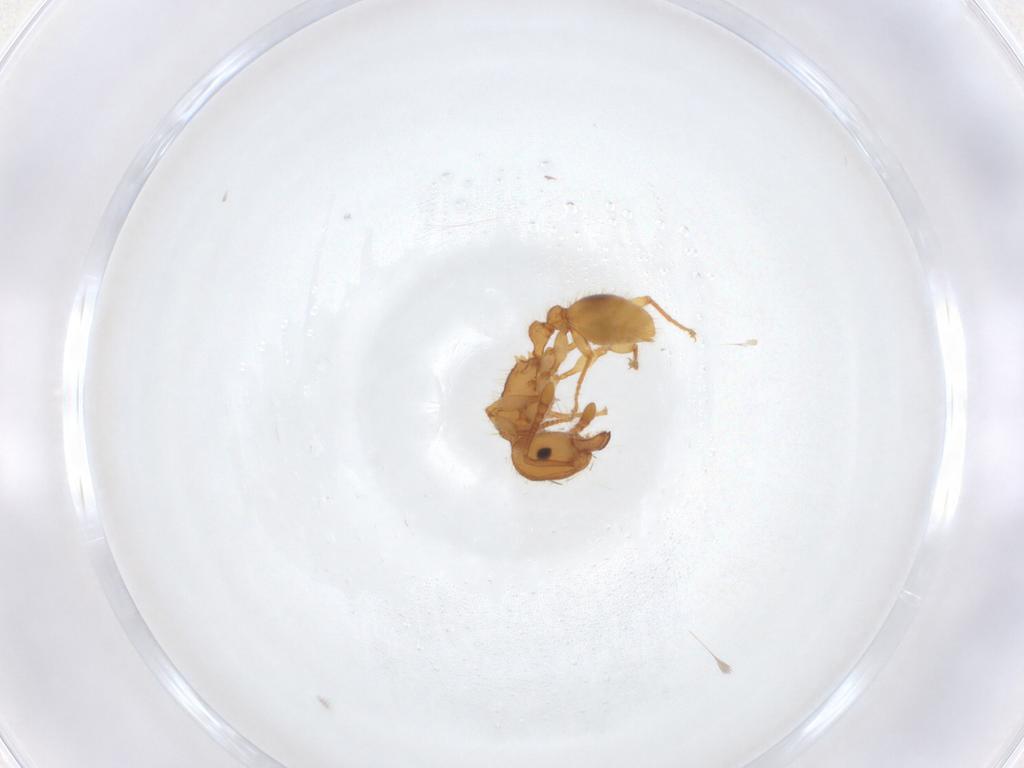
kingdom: Animalia
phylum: Arthropoda
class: Insecta
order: Hymenoptera
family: Formicidae
